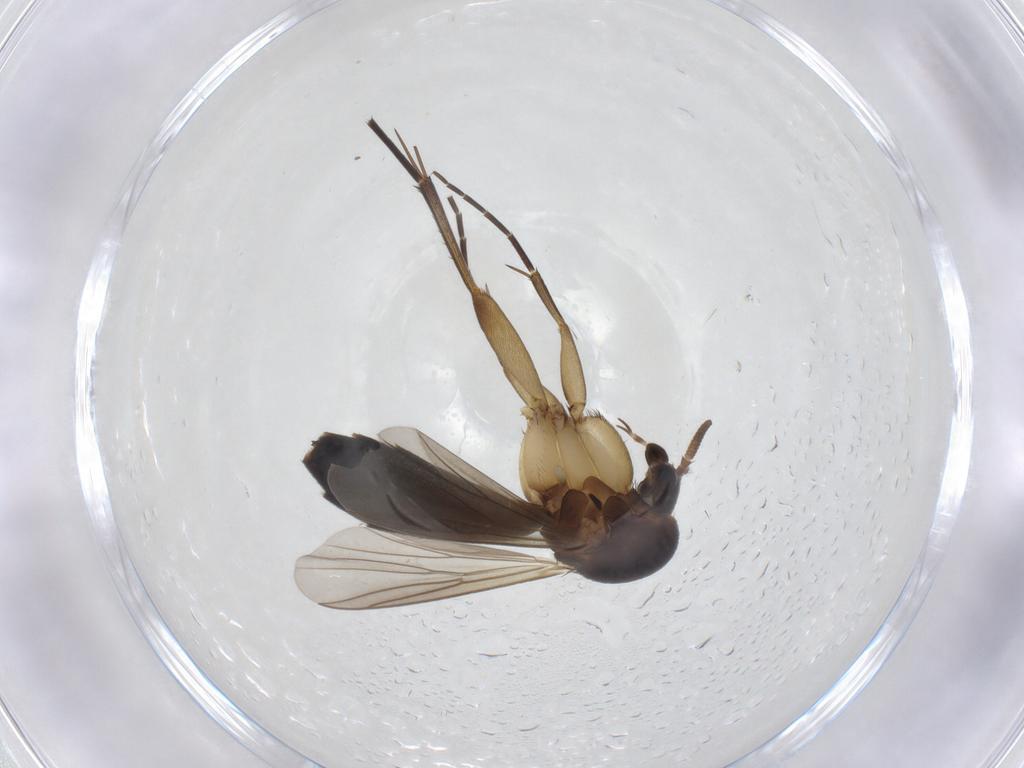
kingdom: Animalia
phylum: Arthropoda
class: Insecta
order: Diptera
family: Mycetophilidae
